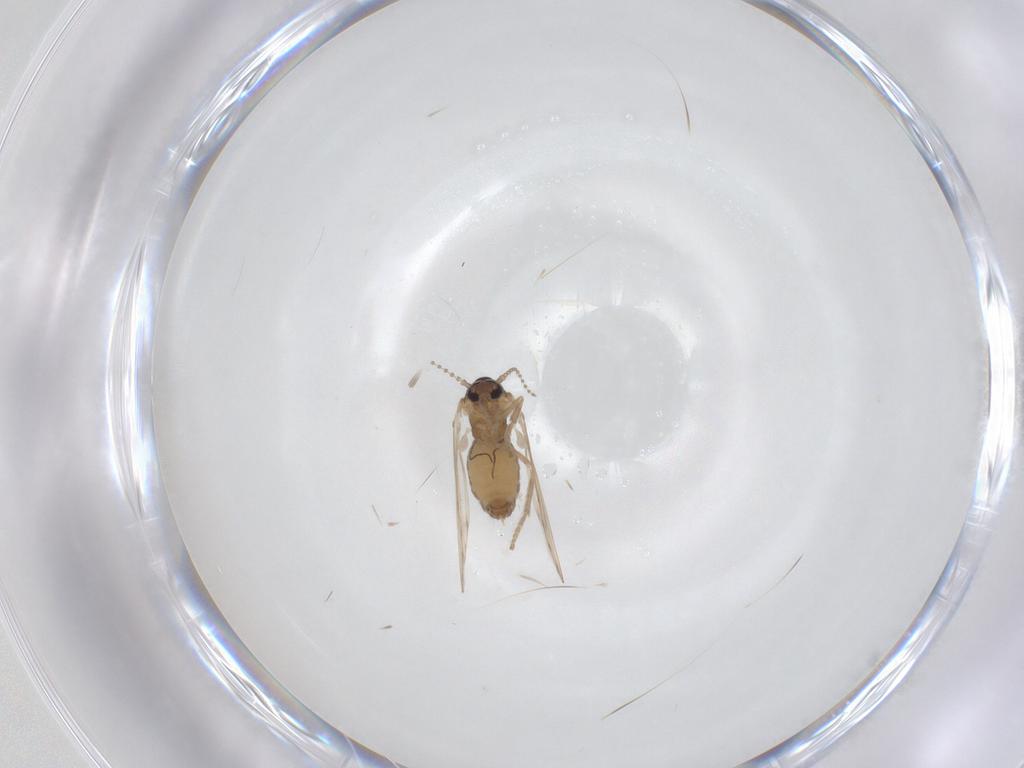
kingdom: Animalia
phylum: Arthropoda
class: Insecta
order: Diptera
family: Psychodidae
